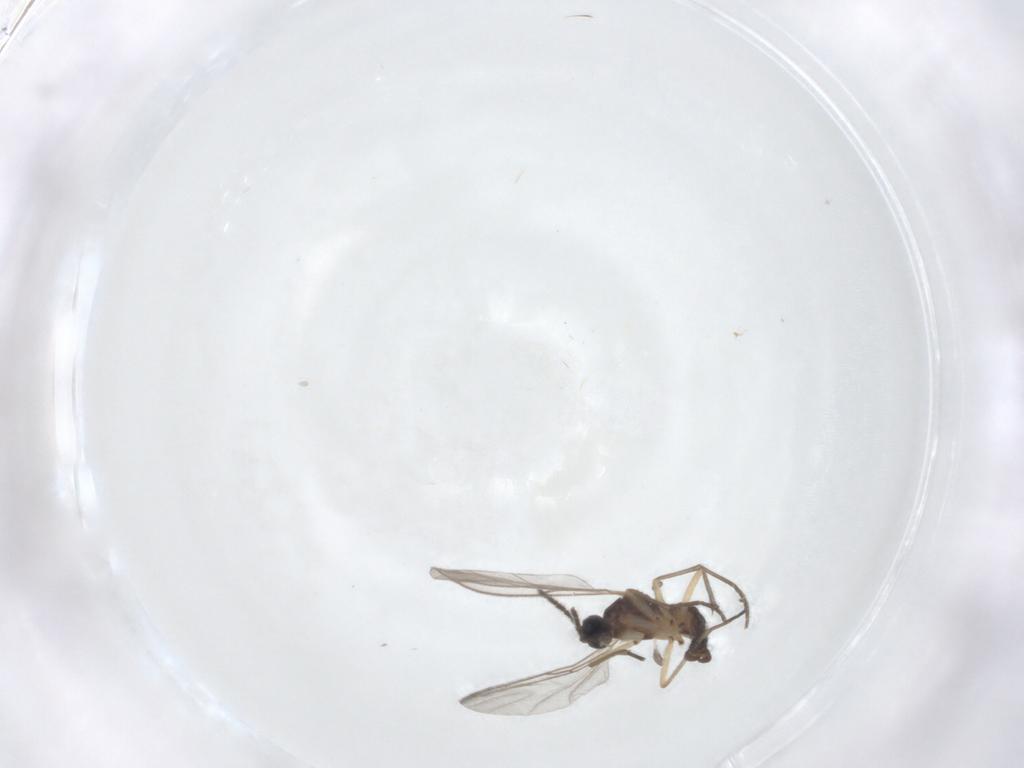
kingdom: Animalia
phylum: Arthropoda
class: Insecta
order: Diptera
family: Sciaridae
